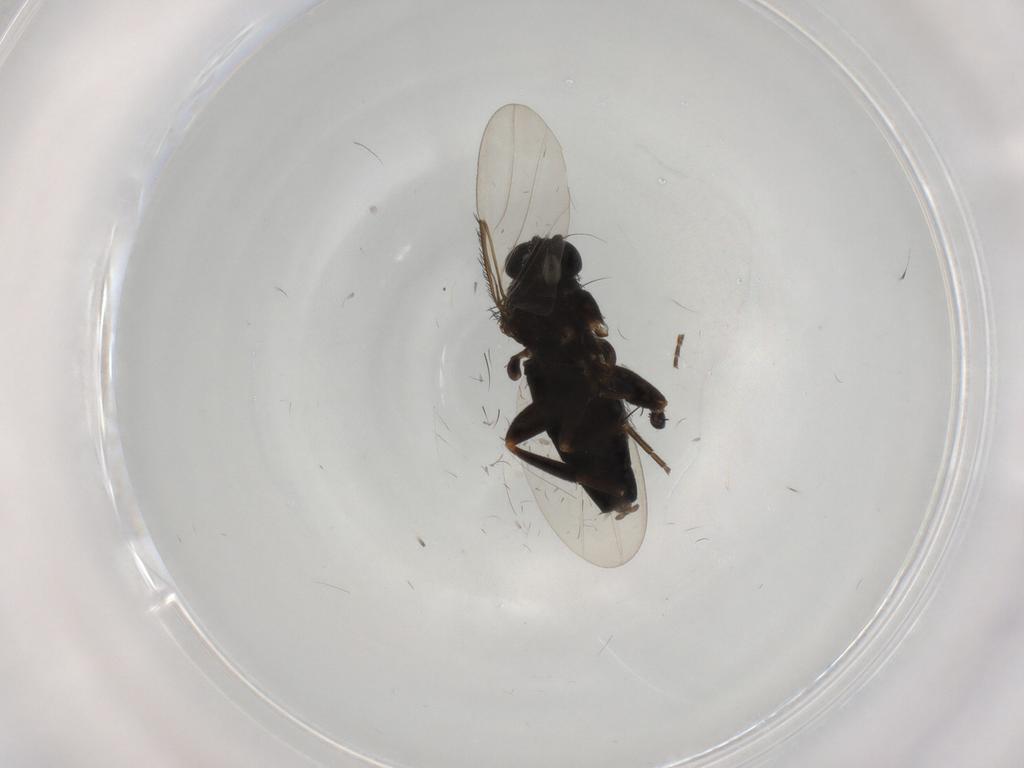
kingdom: Animalia
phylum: Arthropoda
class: Insecta
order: Diptera
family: Phoridae
